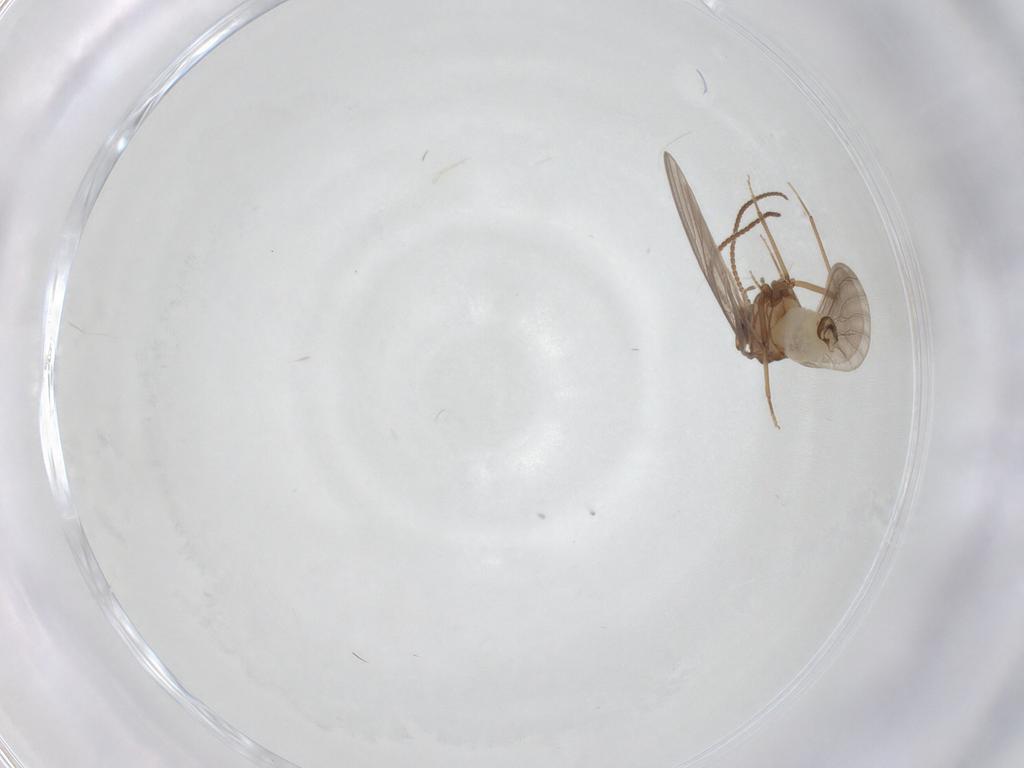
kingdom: Animalia
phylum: Arthropoda
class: Insecta
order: Neuroptera
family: Coniopterygidae
